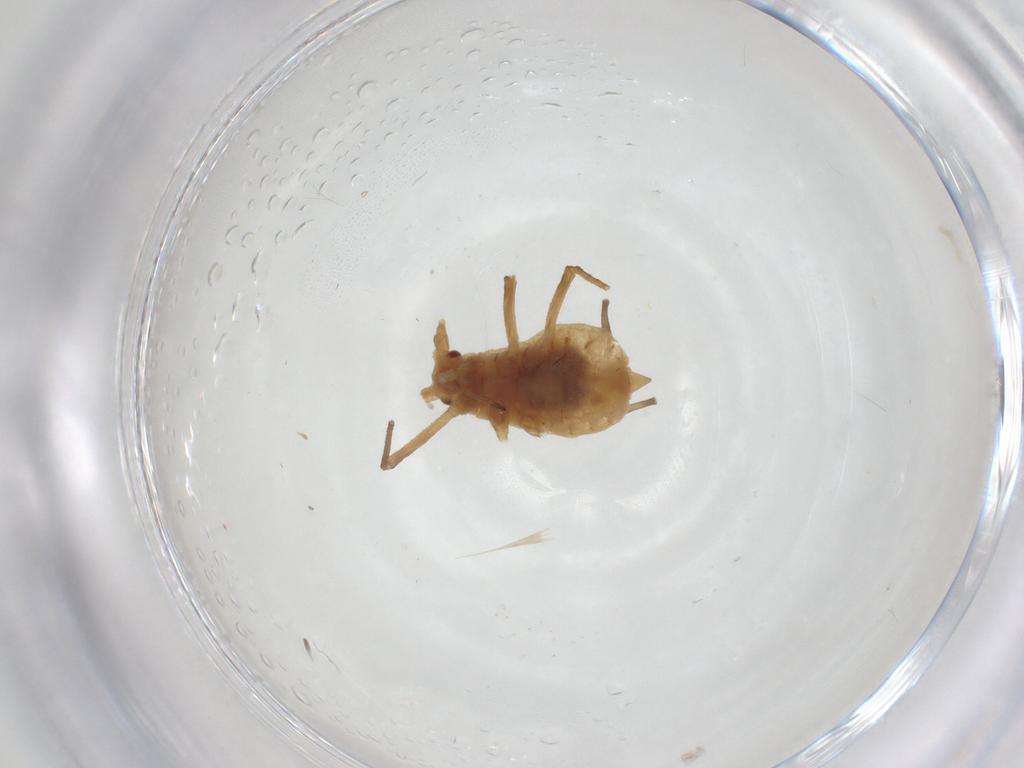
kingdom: Animalia
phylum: Arthropoda
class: Insecta
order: Hemiptera
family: Aphididae
